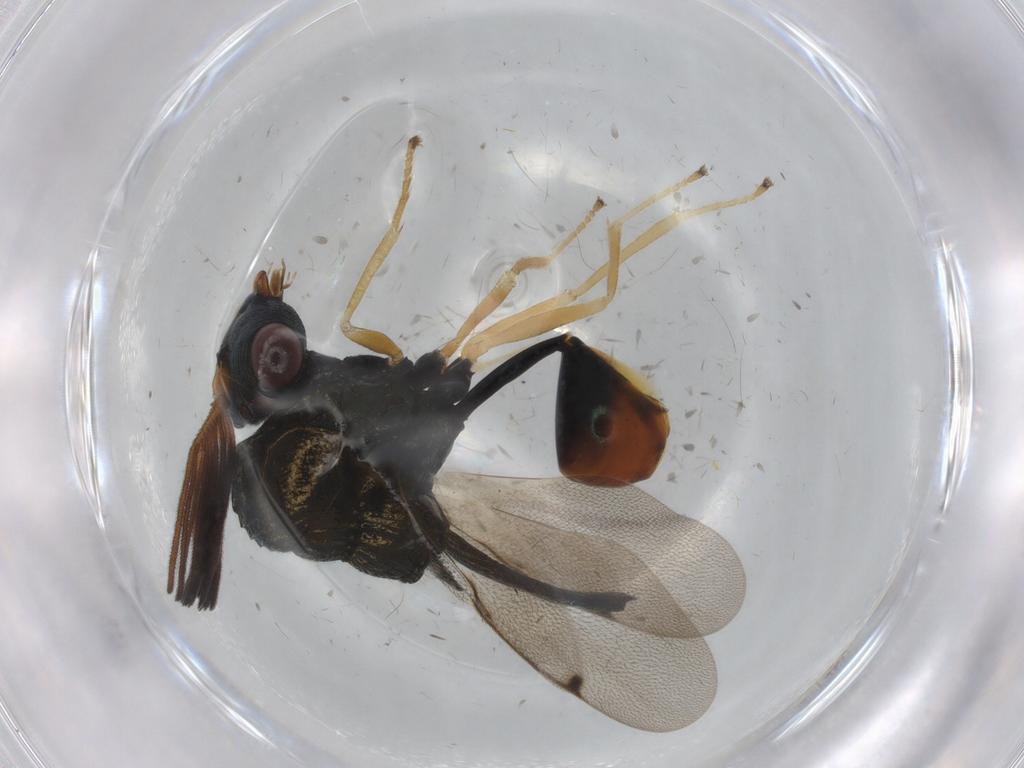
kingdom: Animalia
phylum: Arthropoda
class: Insecta
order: Hymenoptera
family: Formicidae
